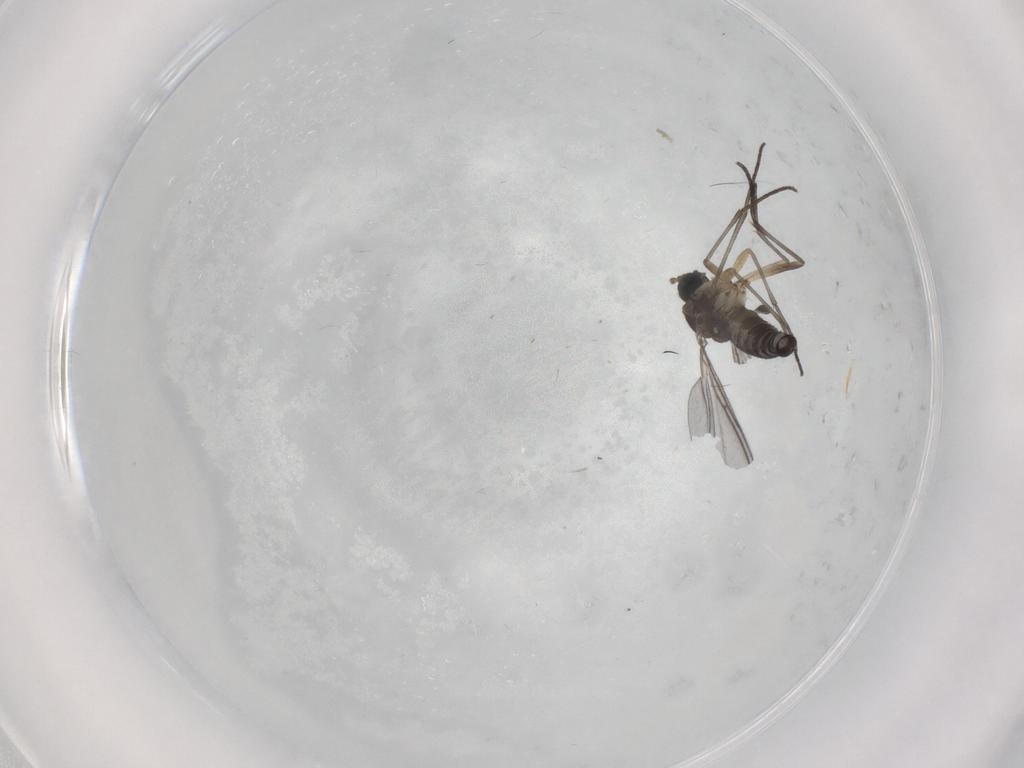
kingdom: Animalia
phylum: Arthropoda
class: Insecta
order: Diptera
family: Sciaridae
